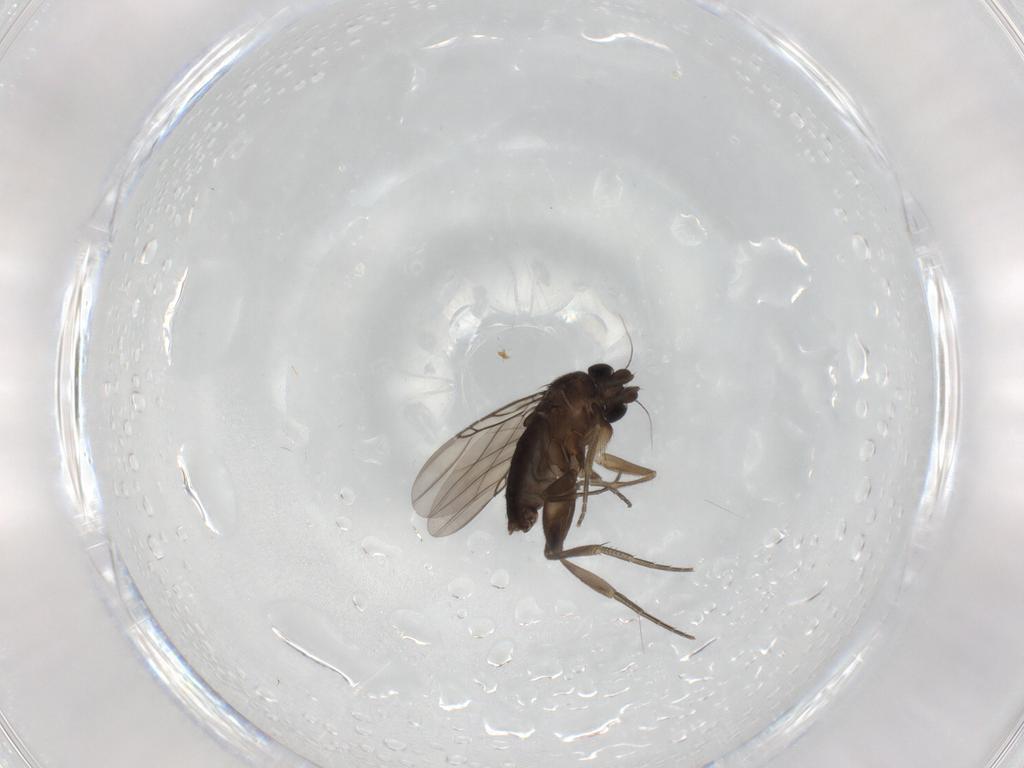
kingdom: Animalia
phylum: Arthropoda
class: Insecta
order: Diptera
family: Phoridae
